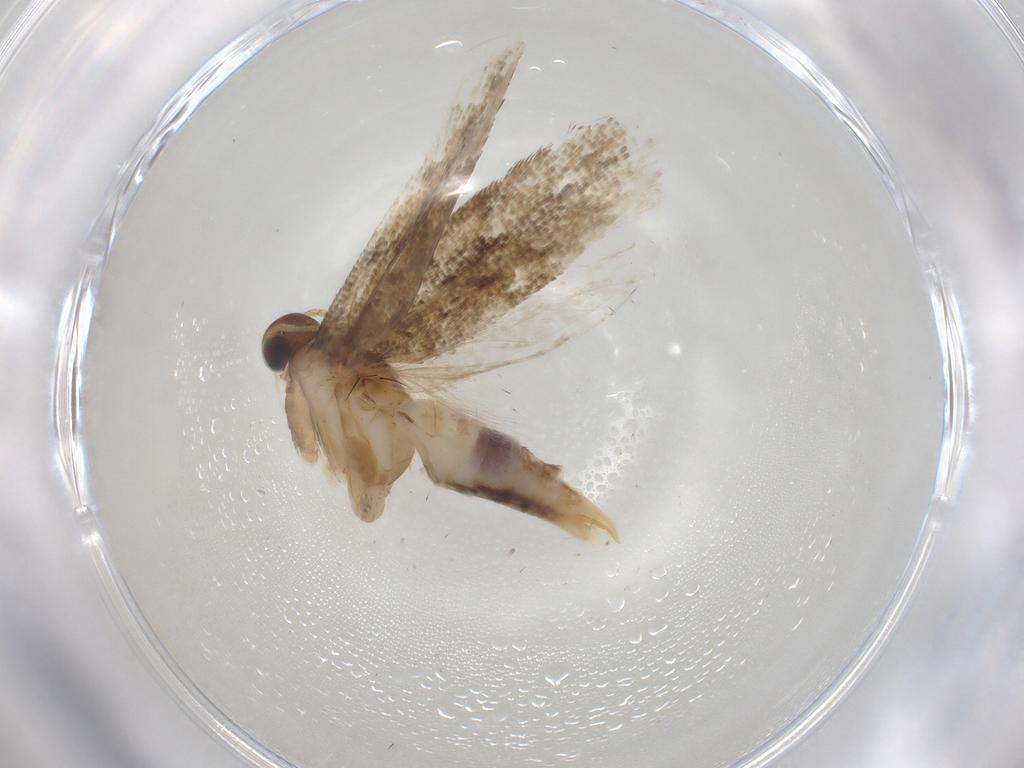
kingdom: Animalia
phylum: Arthropoda
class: Insecta
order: Lepidoptera
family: Gelechiidae
